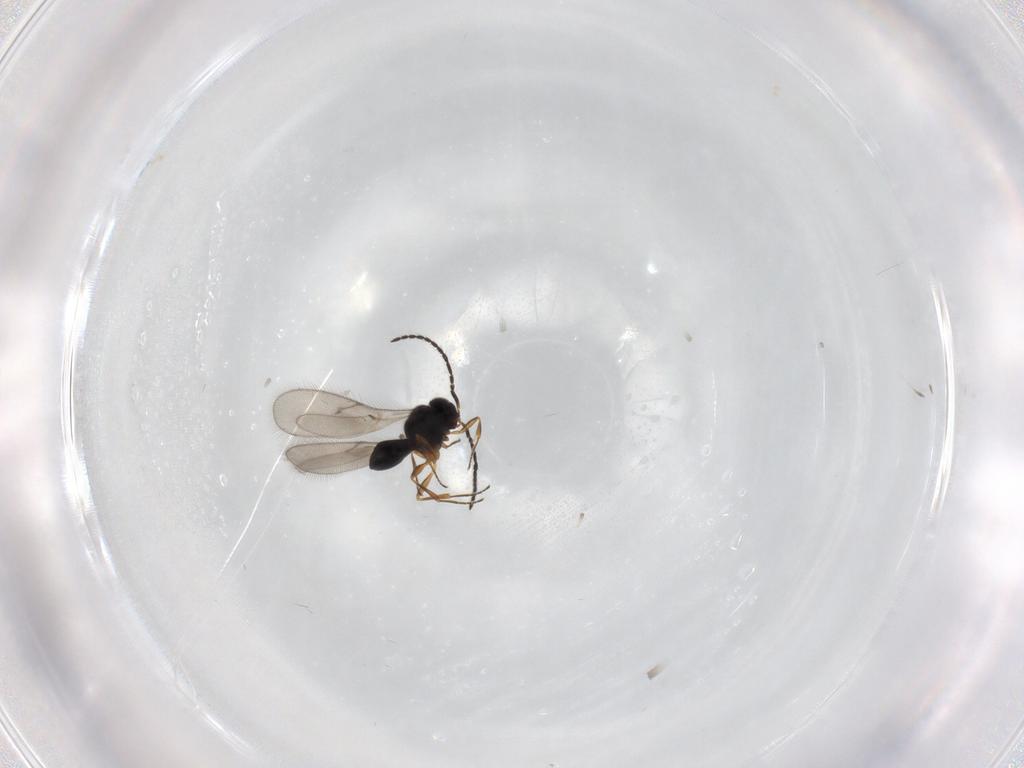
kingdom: Animalia
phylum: Arthropoda
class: Insecta
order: Hymenoptera
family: Scelionidae
